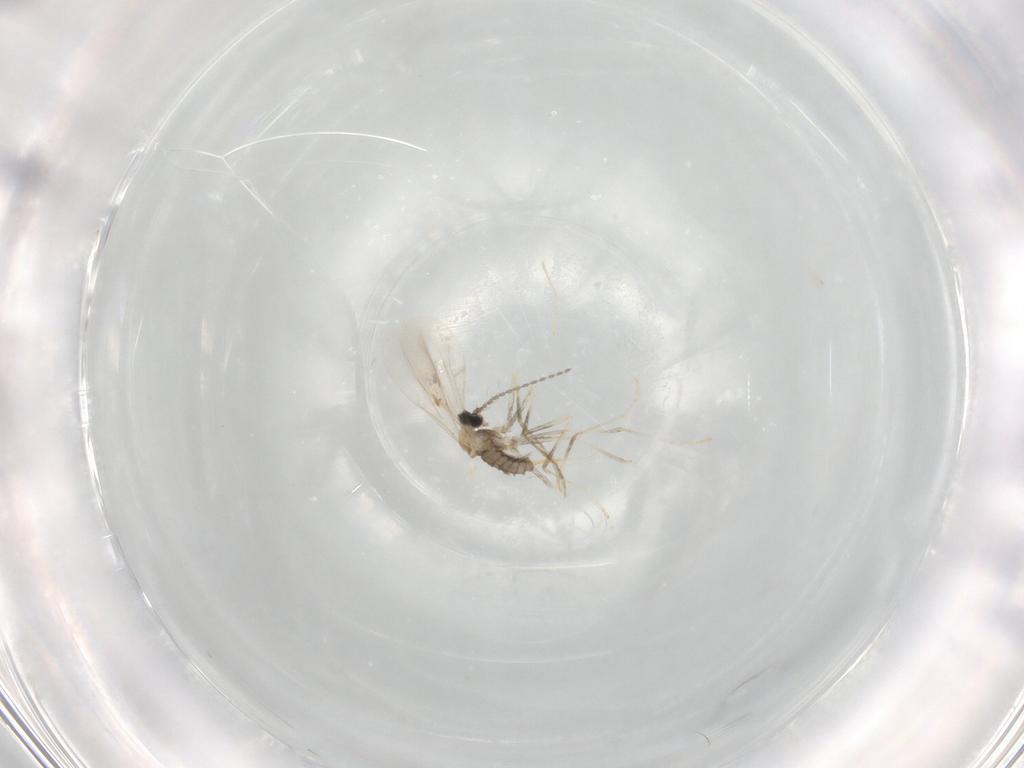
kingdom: Animalia
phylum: Arthropoda
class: Insecta
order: Diptera
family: Cecidomyiidae
